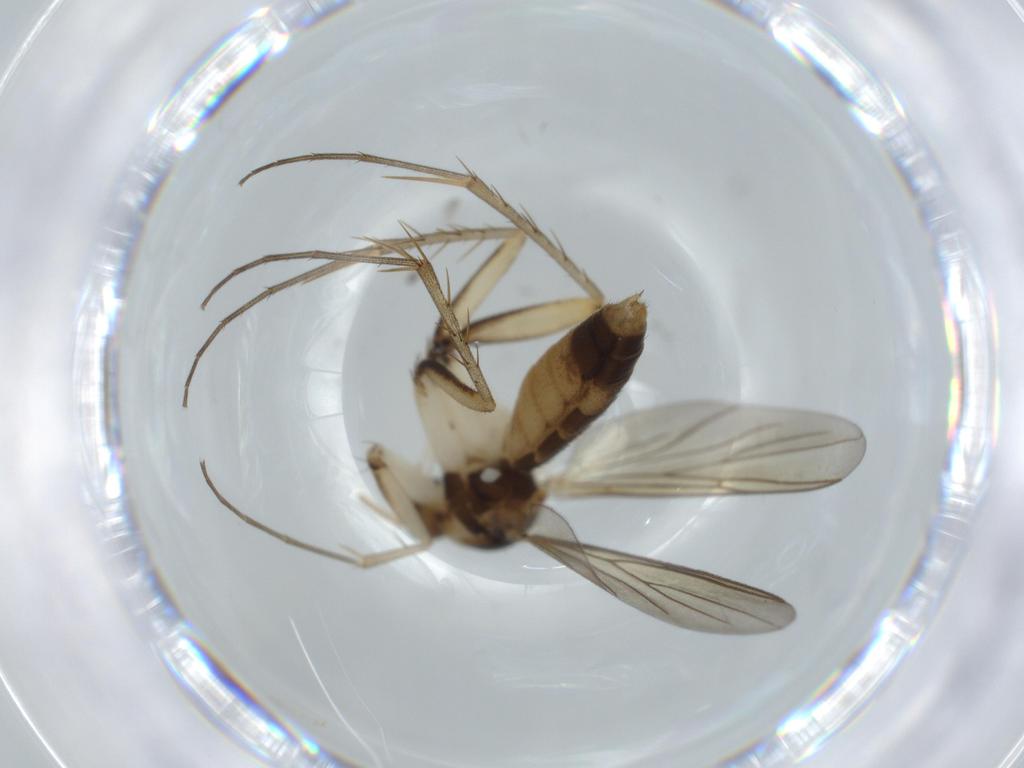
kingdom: Animalia
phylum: Arthropoda
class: Insecta
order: Diptera
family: Mycetophilidae
